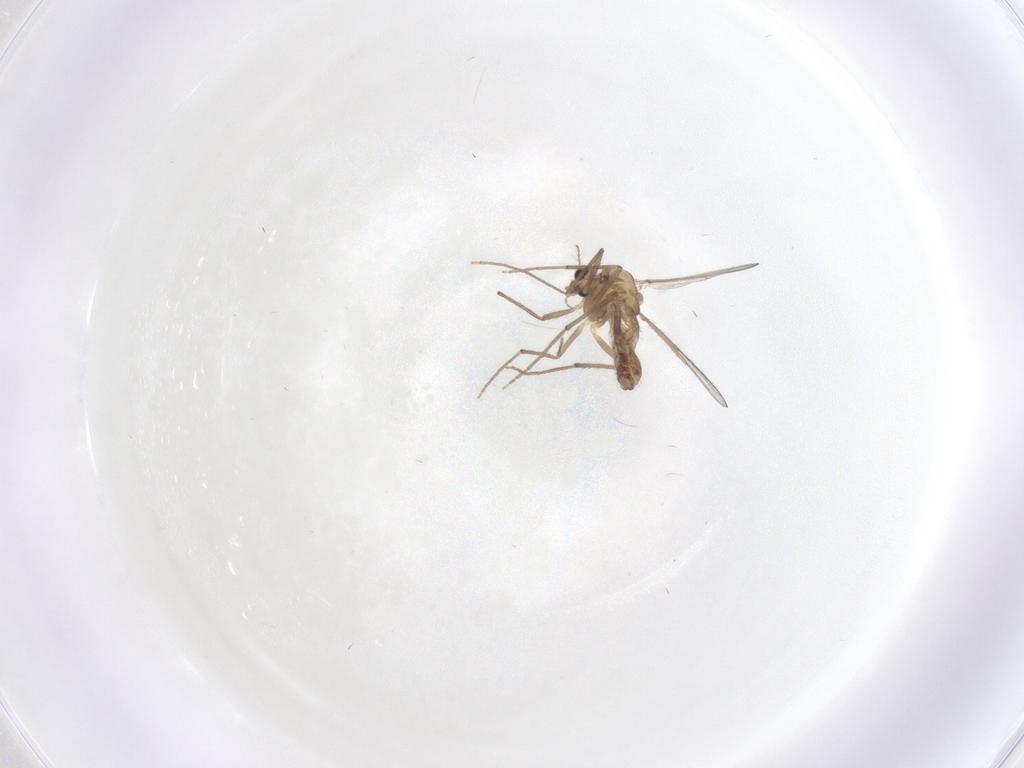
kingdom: Animalia
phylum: Arthropoda
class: Insecta
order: Diptera
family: Chironomidae
